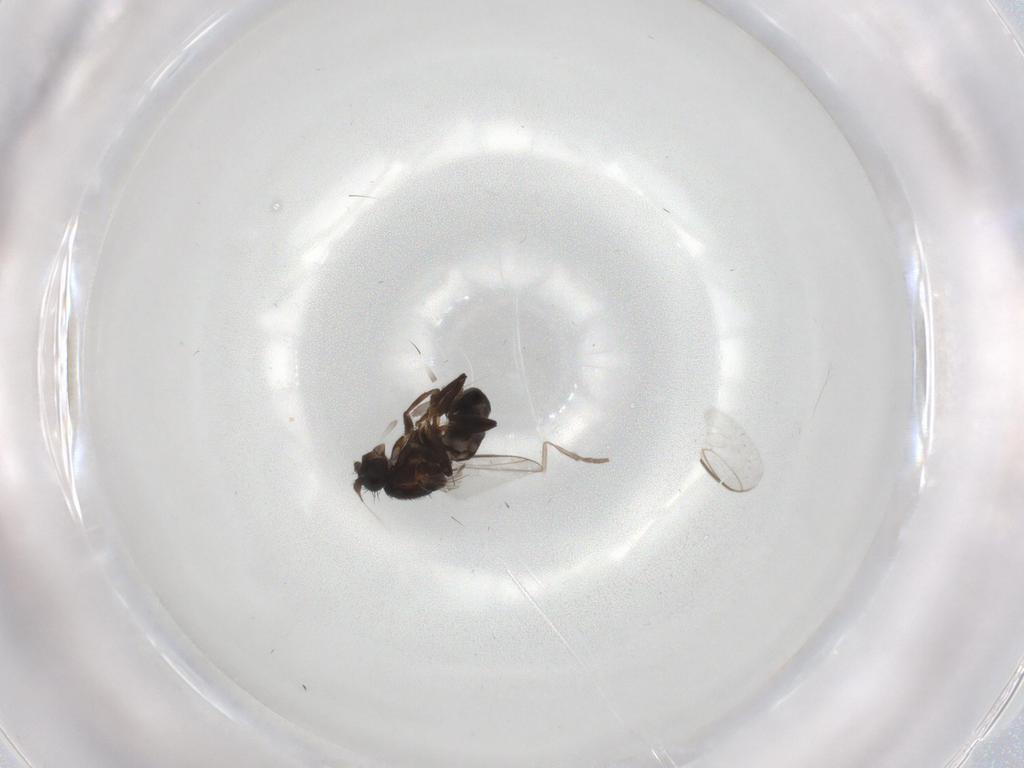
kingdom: Animalia
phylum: Arthropoda
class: Insecta
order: Diptera
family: Sphaeroceridae
